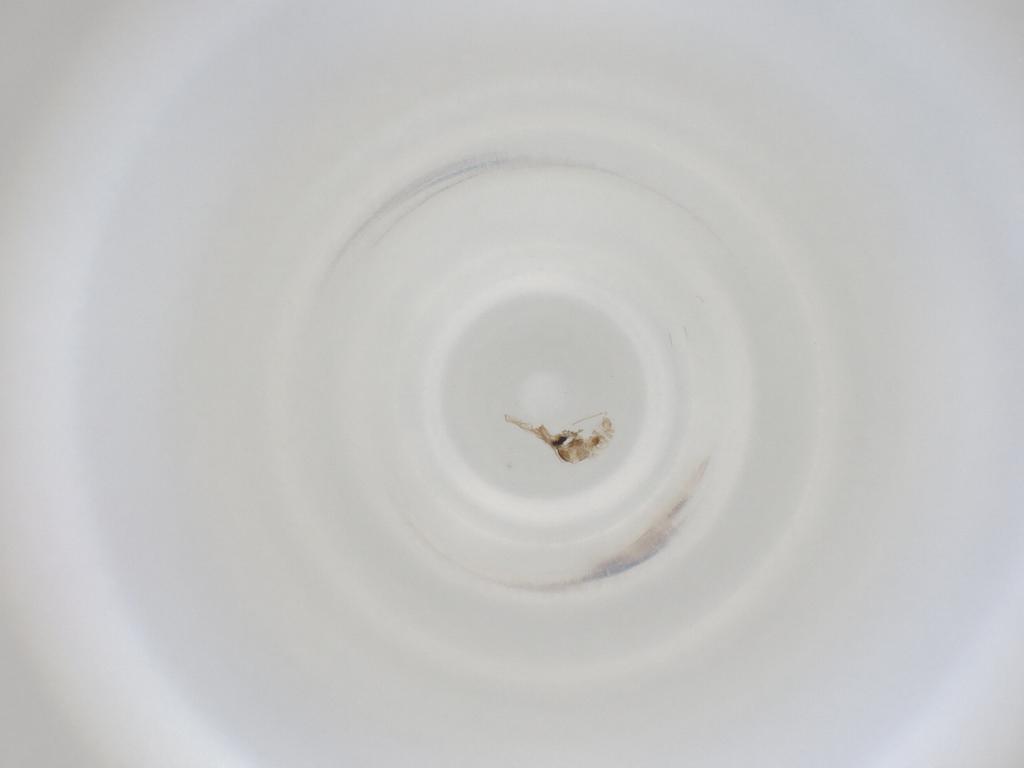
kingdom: Animalia
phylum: Arthropoda
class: Insecta
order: Diptera
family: Cecidomyiidae
